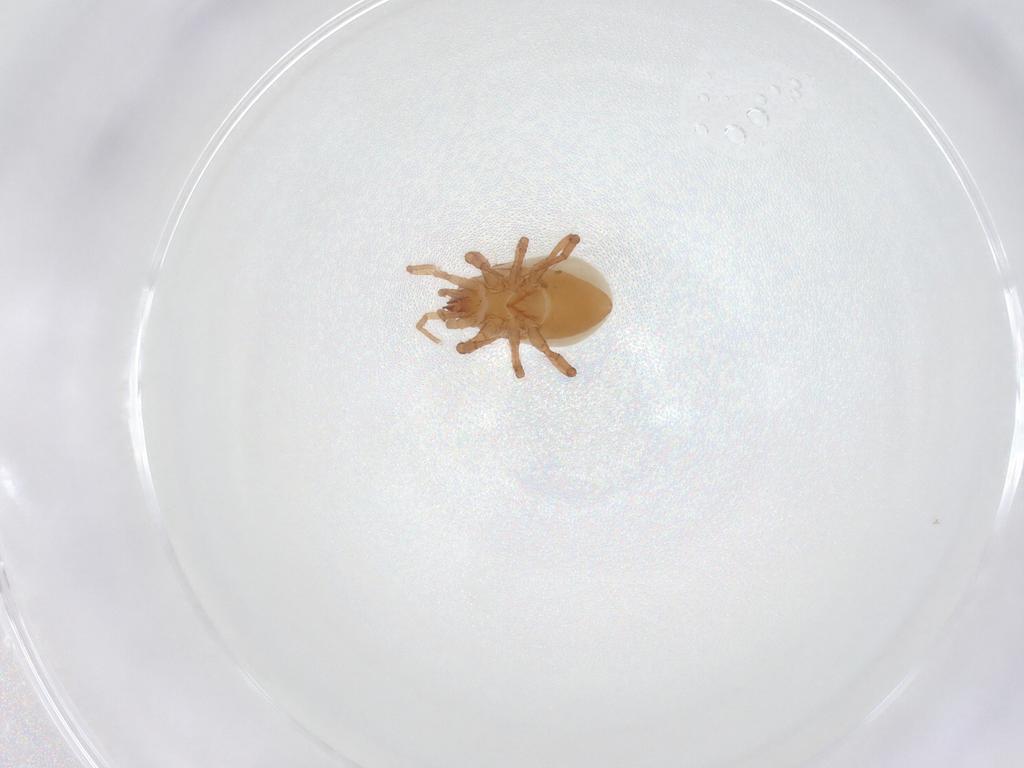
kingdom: Animalia
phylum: Arthropoda
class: Arachnida
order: Mesostigmata
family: Parasitidae
